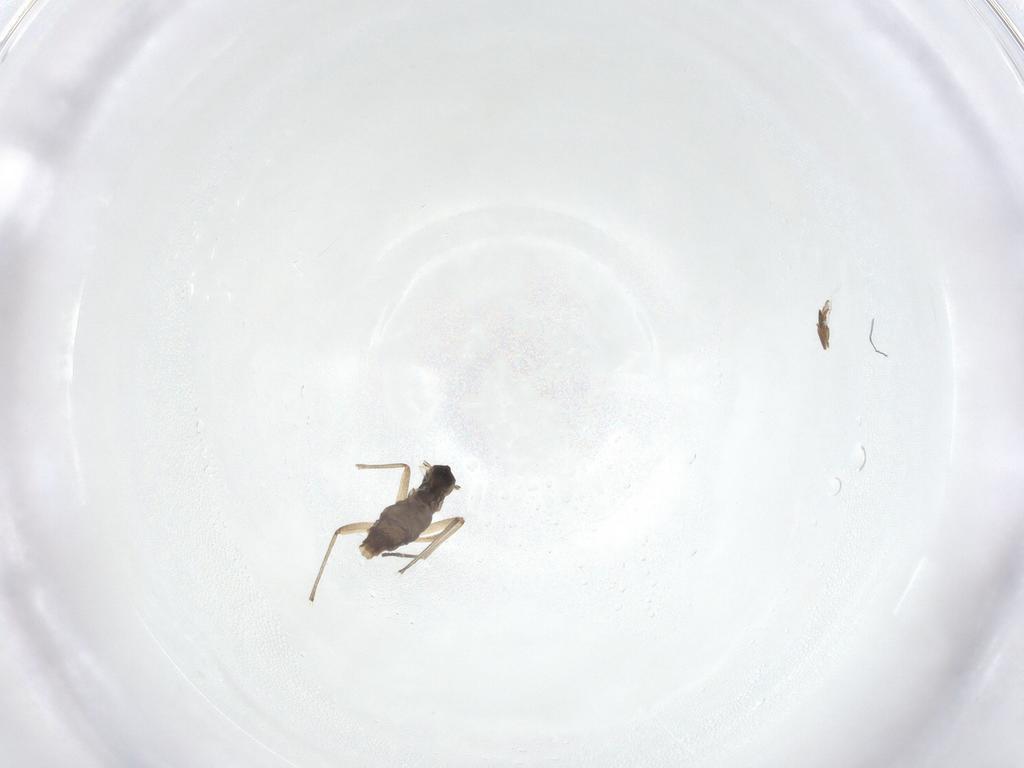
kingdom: Animalia
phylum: Arthropoda
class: Insecta
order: Diptera
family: Sciaridae
